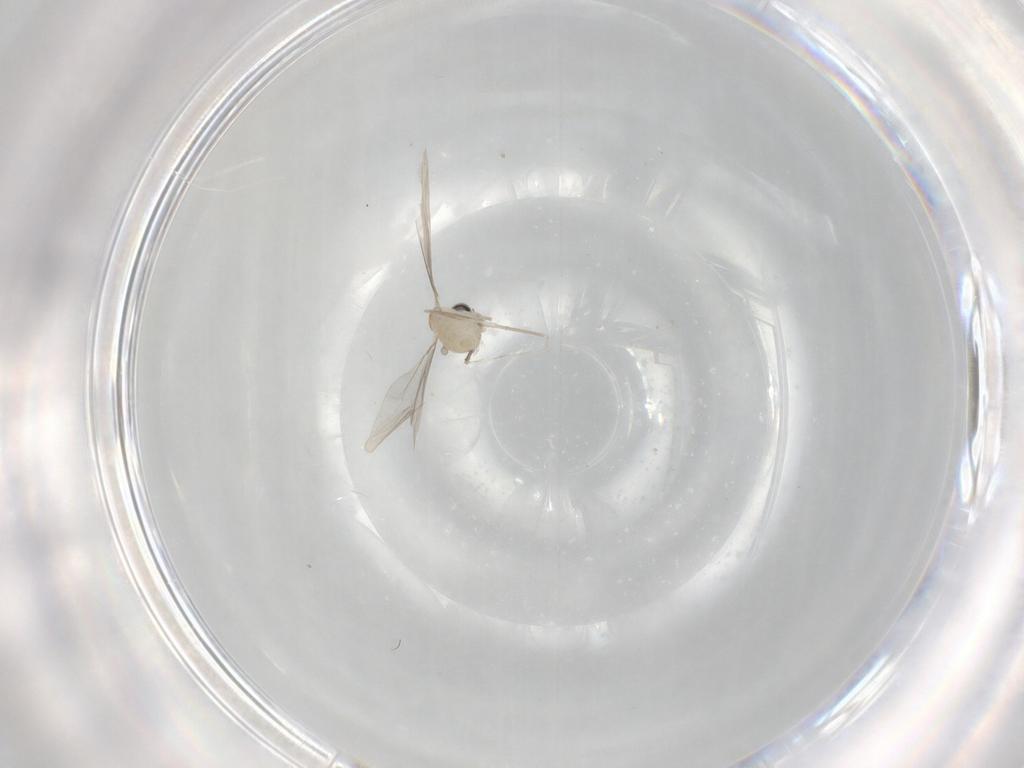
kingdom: Animalia
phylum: Arthropoda
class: Insecta
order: Diptera
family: Cecidomyiidae
